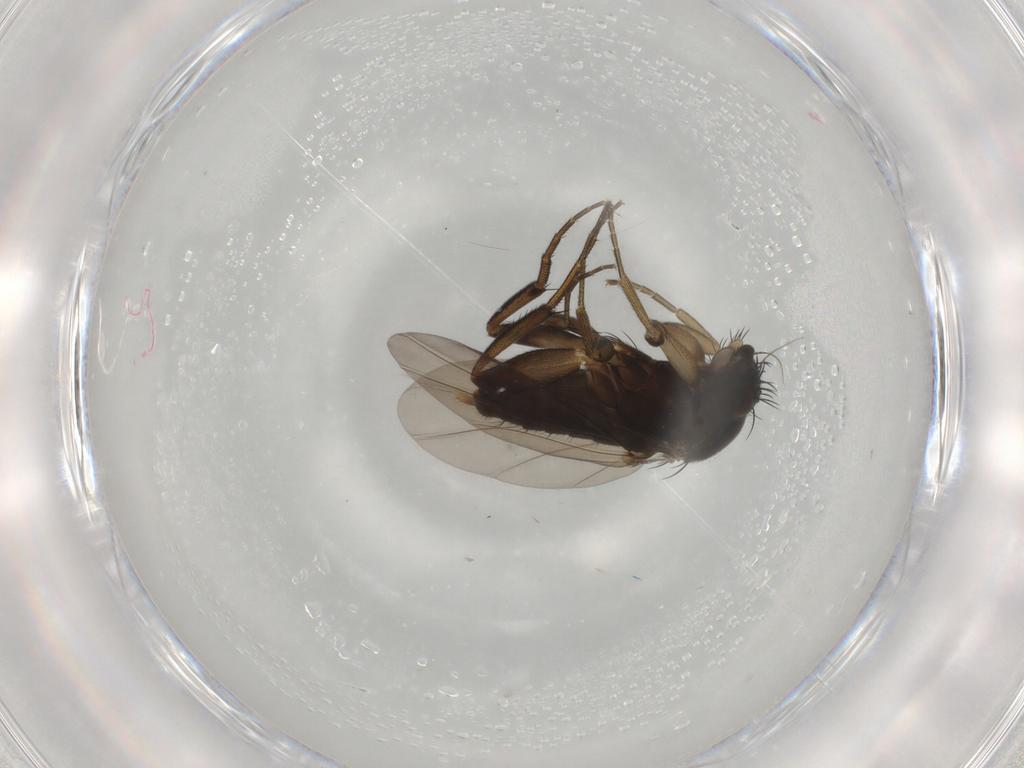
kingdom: Animalia
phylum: Arthropoda
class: Insecta
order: Diptera
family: Phoridae
